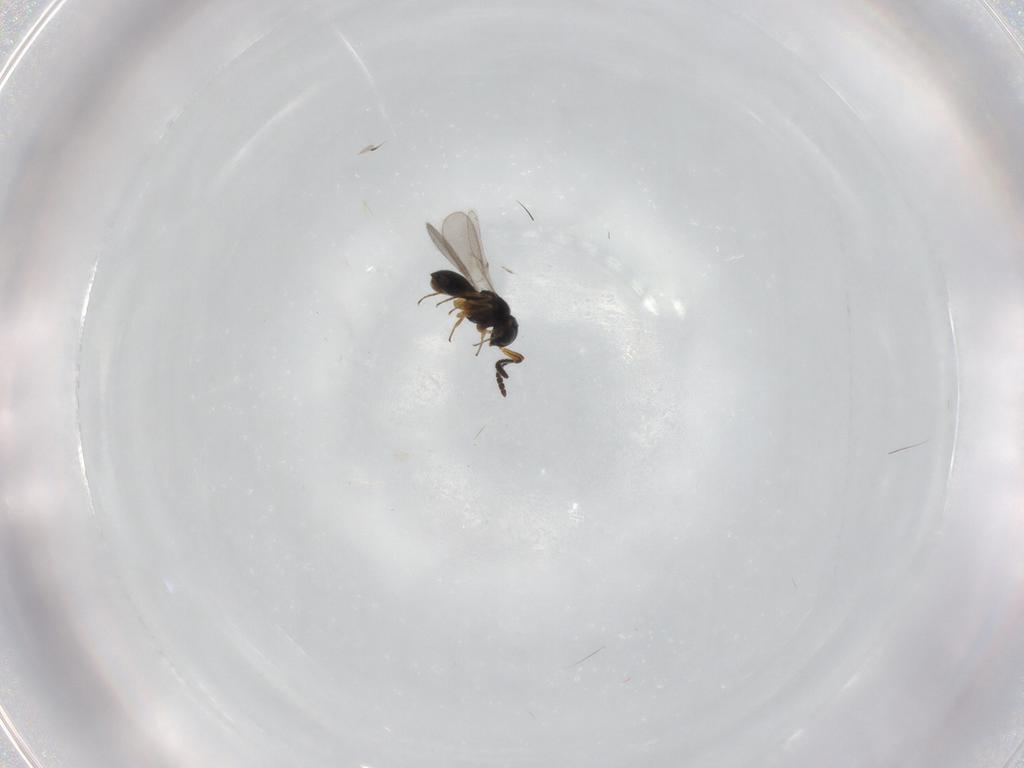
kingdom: Animalia
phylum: Arthropoda
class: Insecta
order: Hymenoptera
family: Scelionidae
